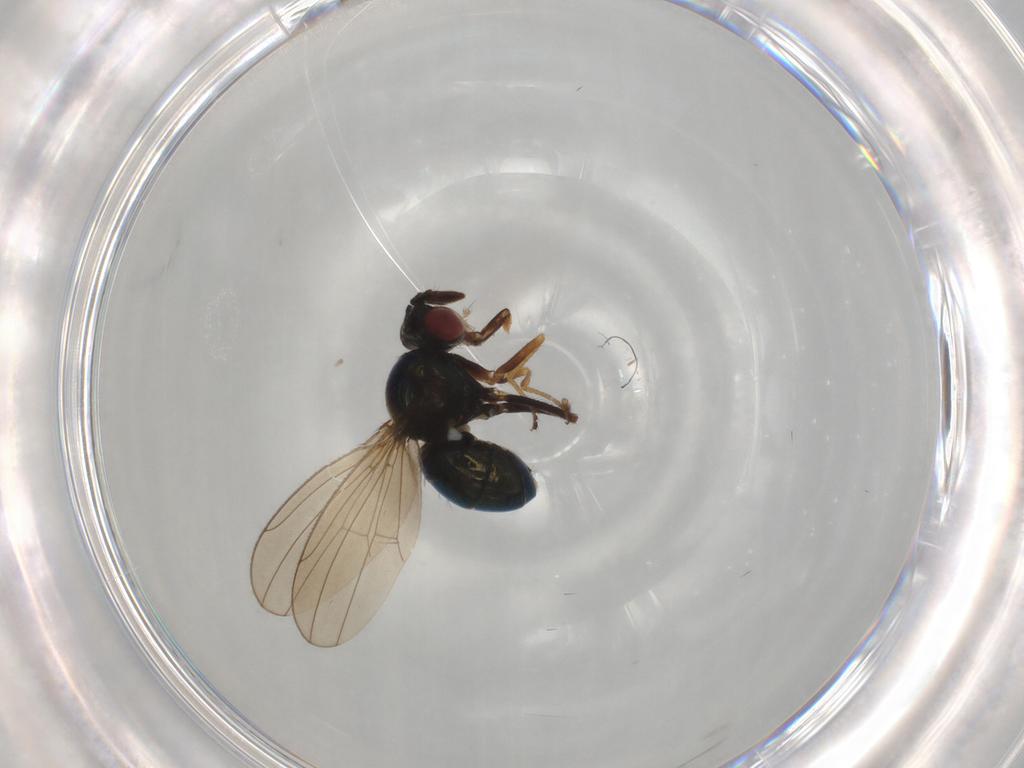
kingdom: Animalia
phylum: Arthropoda
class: Insecta
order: Diptera
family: Ephydridae
